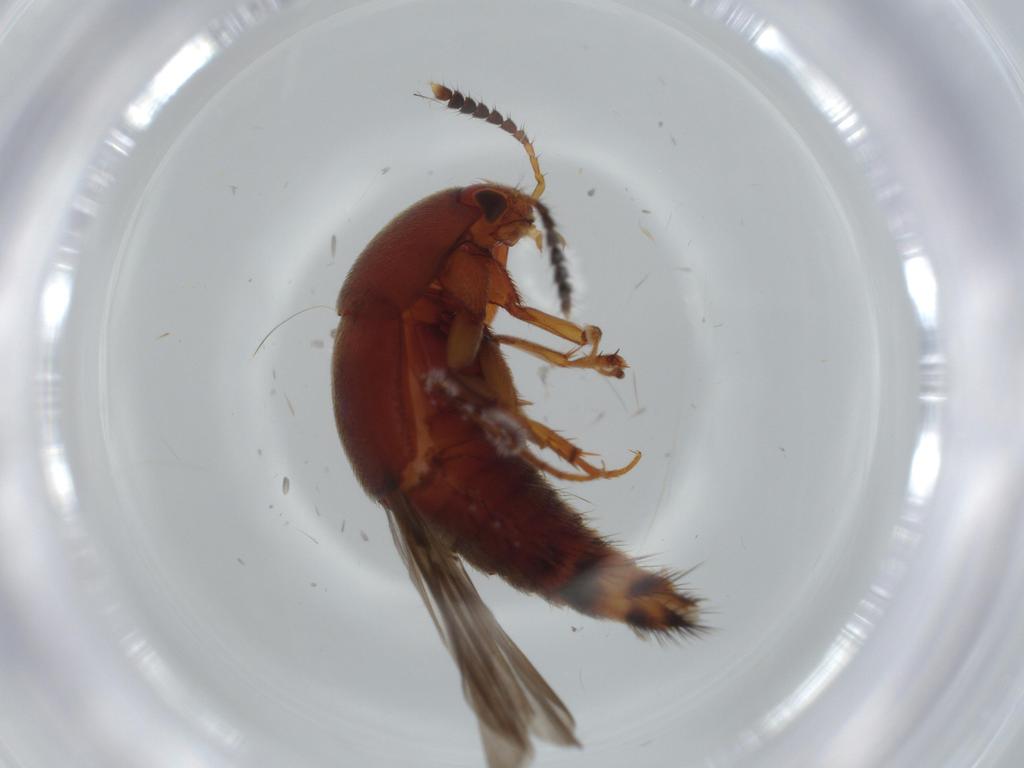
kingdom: Animalia
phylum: Arthropoda
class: Insecta
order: Coleoptera
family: Staphylinidae
